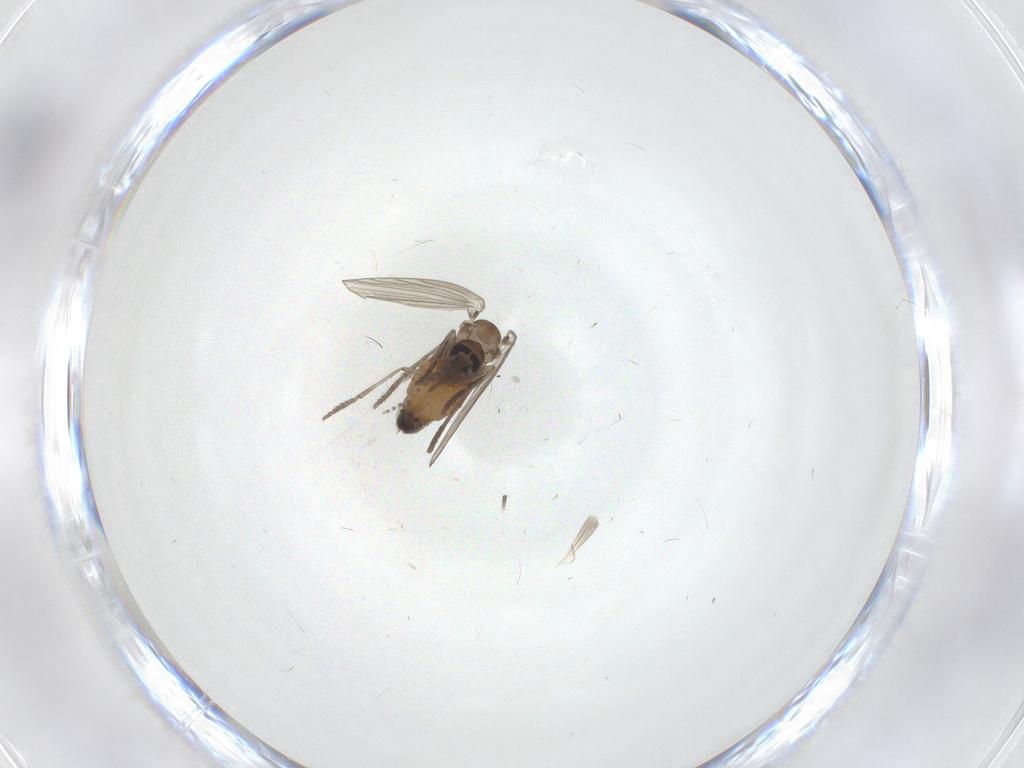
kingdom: Animalia
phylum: Arthropoda
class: Insecta
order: Diptera
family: Psychodidae
